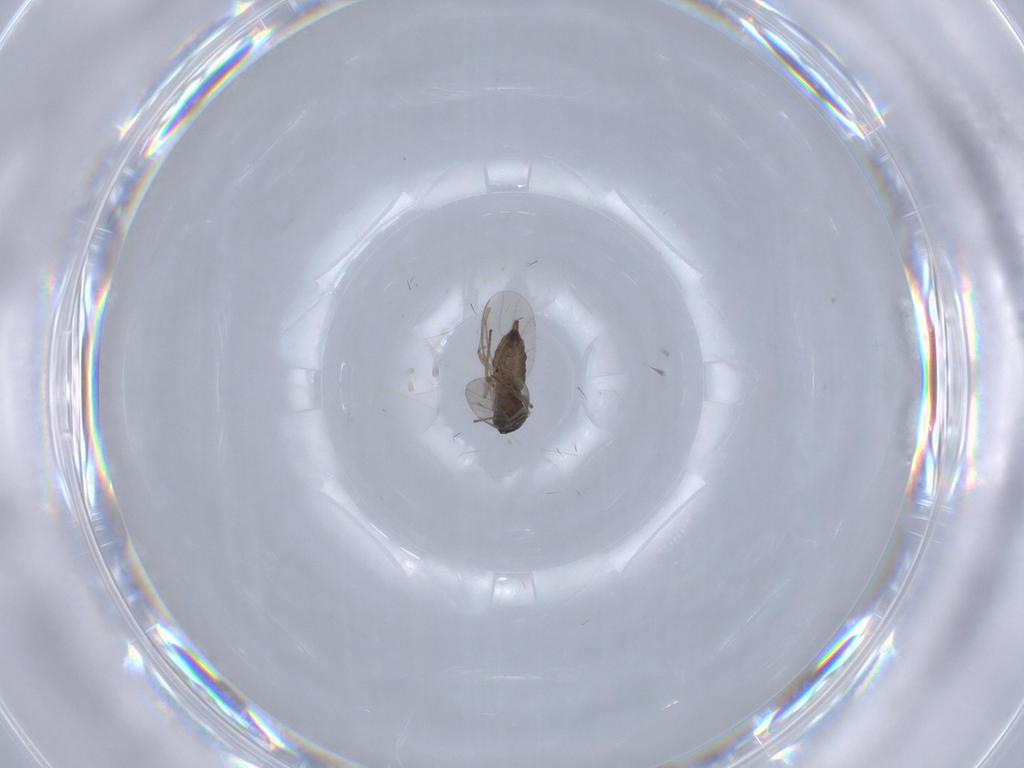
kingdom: Animalia
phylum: Arthropoda
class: Insecta
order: Diptera
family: Sciaridae
